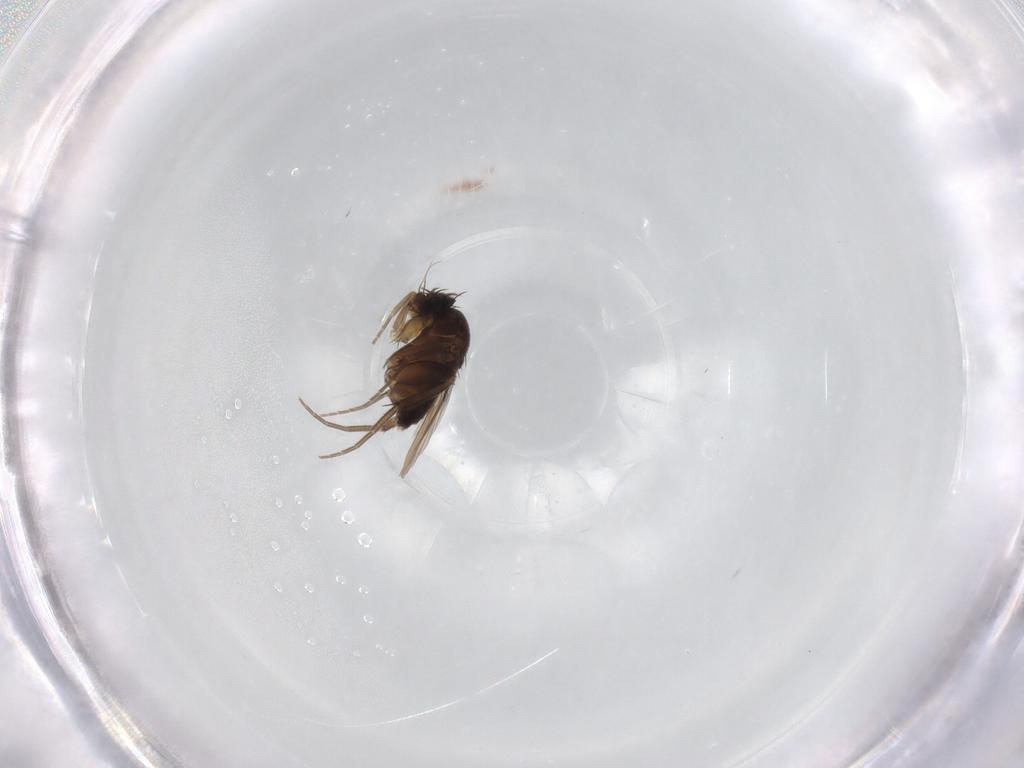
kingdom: Animalia
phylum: Arthropoda
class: Insecta
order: Diptera
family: Phoridae
